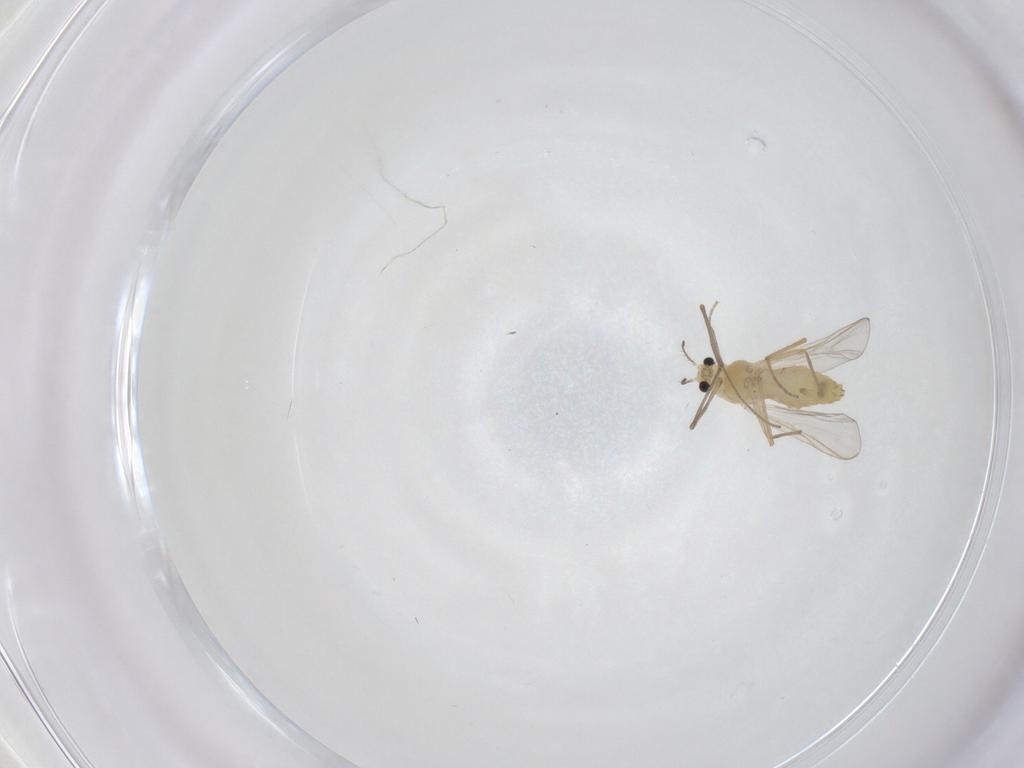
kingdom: Animalia
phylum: Arthropoda
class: Insecta
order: Diptera
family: Chironomidae
